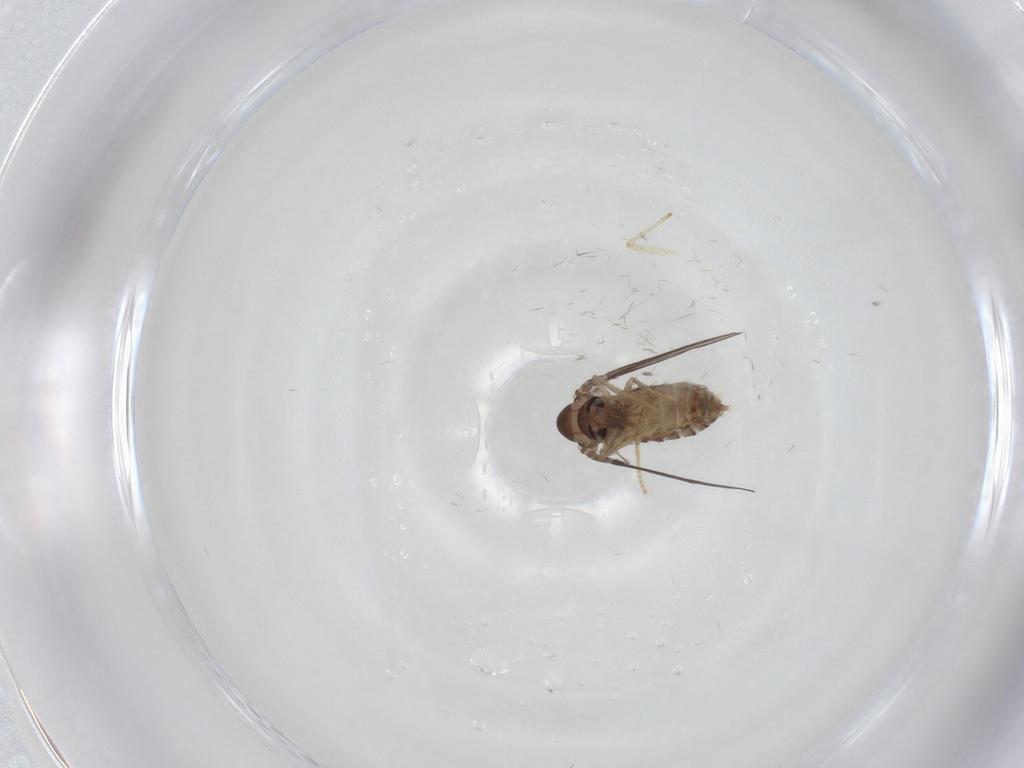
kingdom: Animalia
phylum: Arthropoda
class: Insecta
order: Diptera
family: Psychodidae
